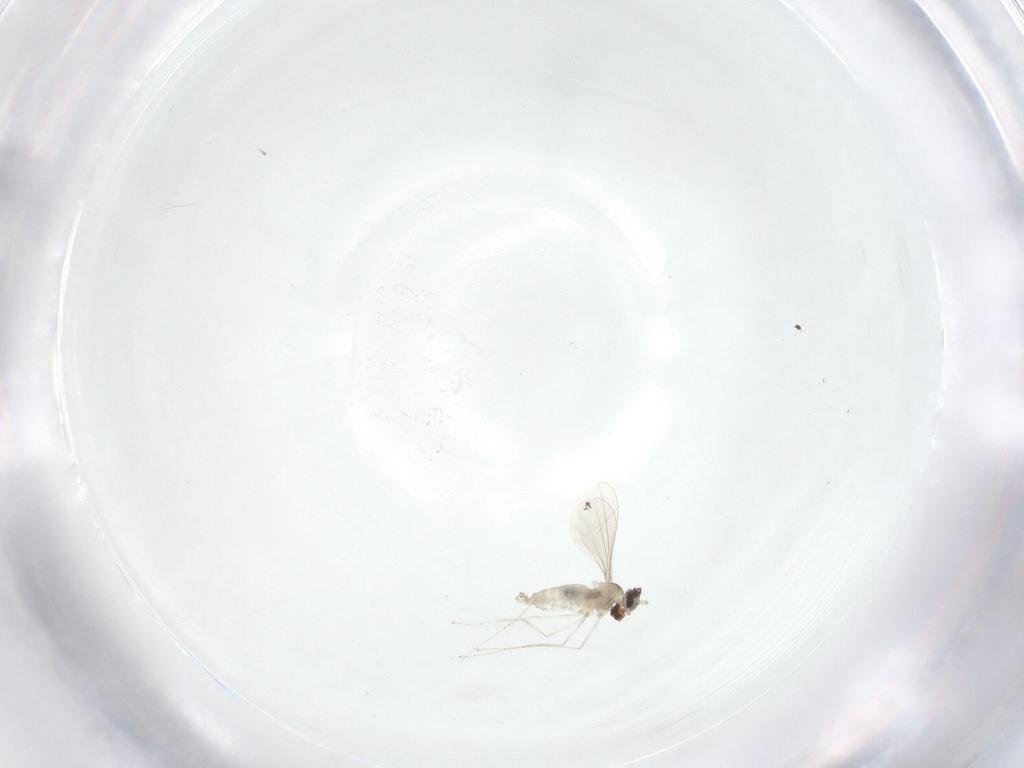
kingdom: Animalia
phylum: Arthropoda
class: Insecta
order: Diptera
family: Cecidomyiidae
